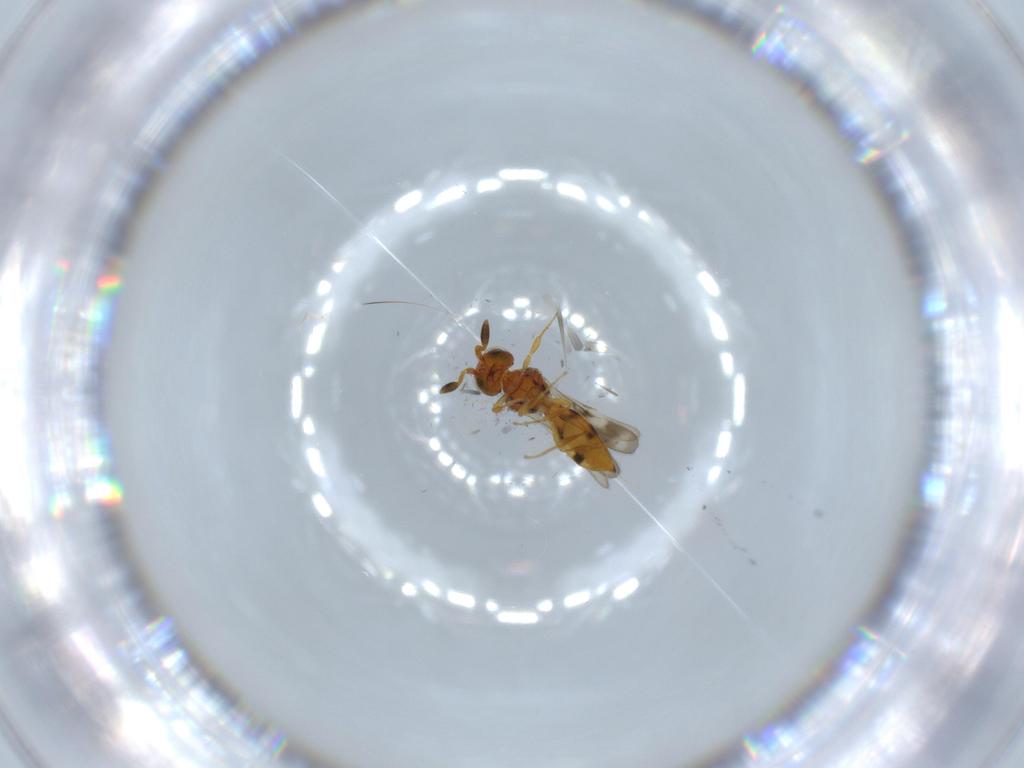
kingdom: Animalia
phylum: Arthropoda
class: Insecta
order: Hymenoptera
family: Scelionidae
